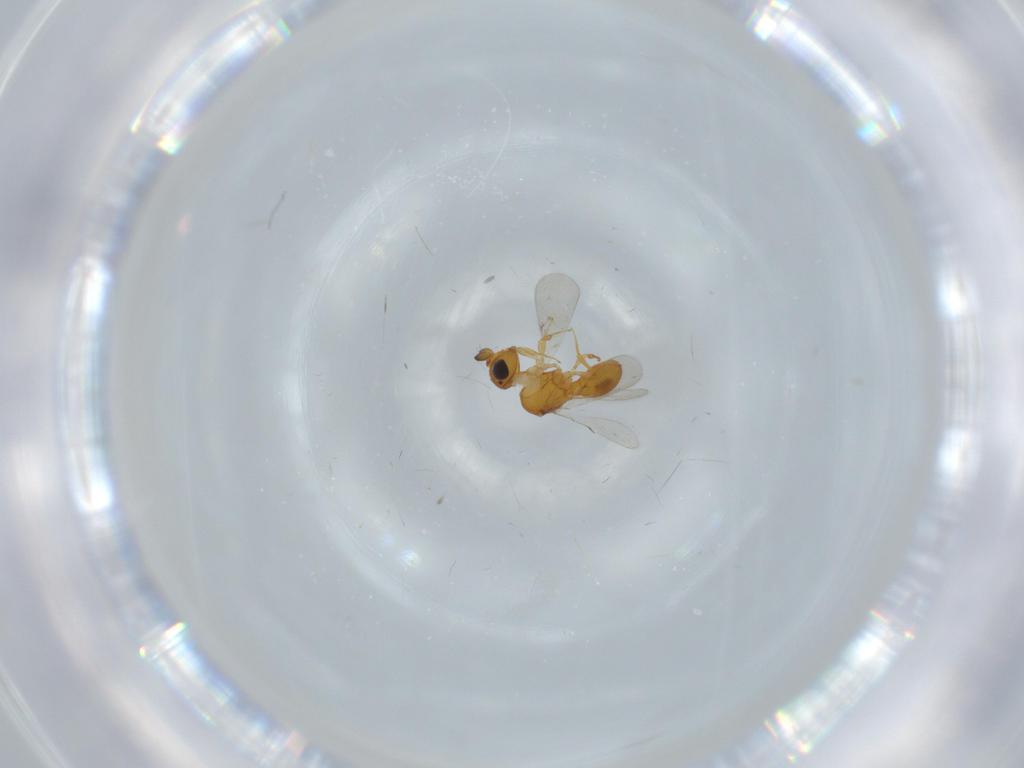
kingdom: Animalia
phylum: Arthropoda
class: Insecta
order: Hymenoptera
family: Scelionidae
